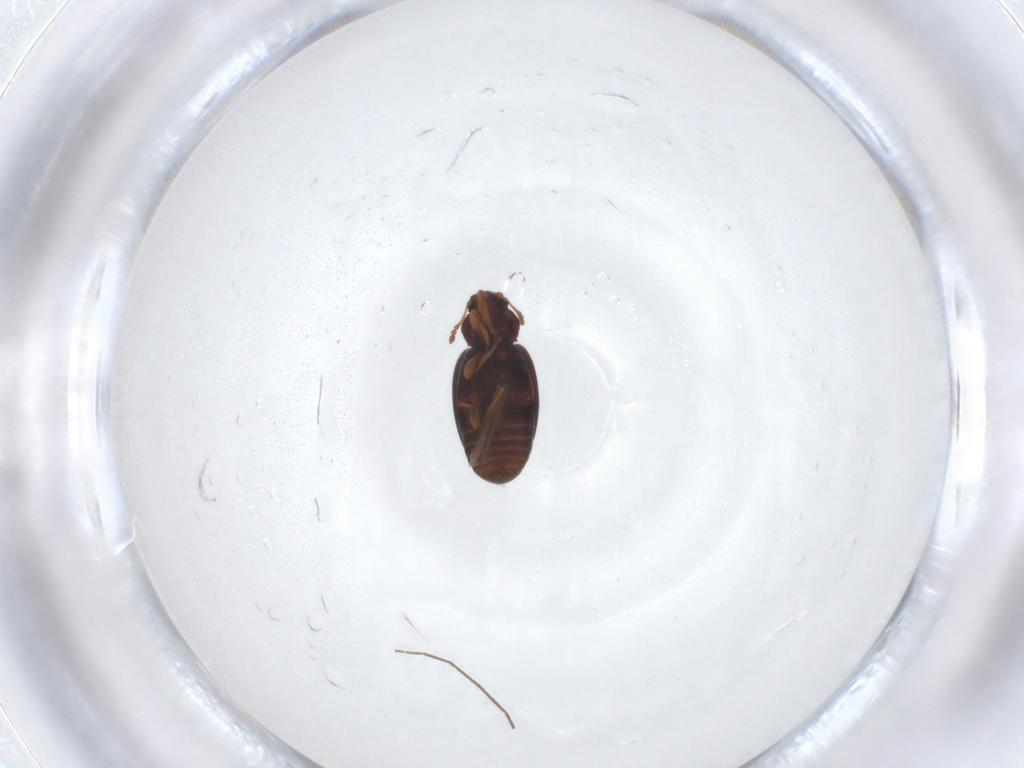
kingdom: Animalia
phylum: Arthropoda
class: Insecta
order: Coleoptera
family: Latridiidae
